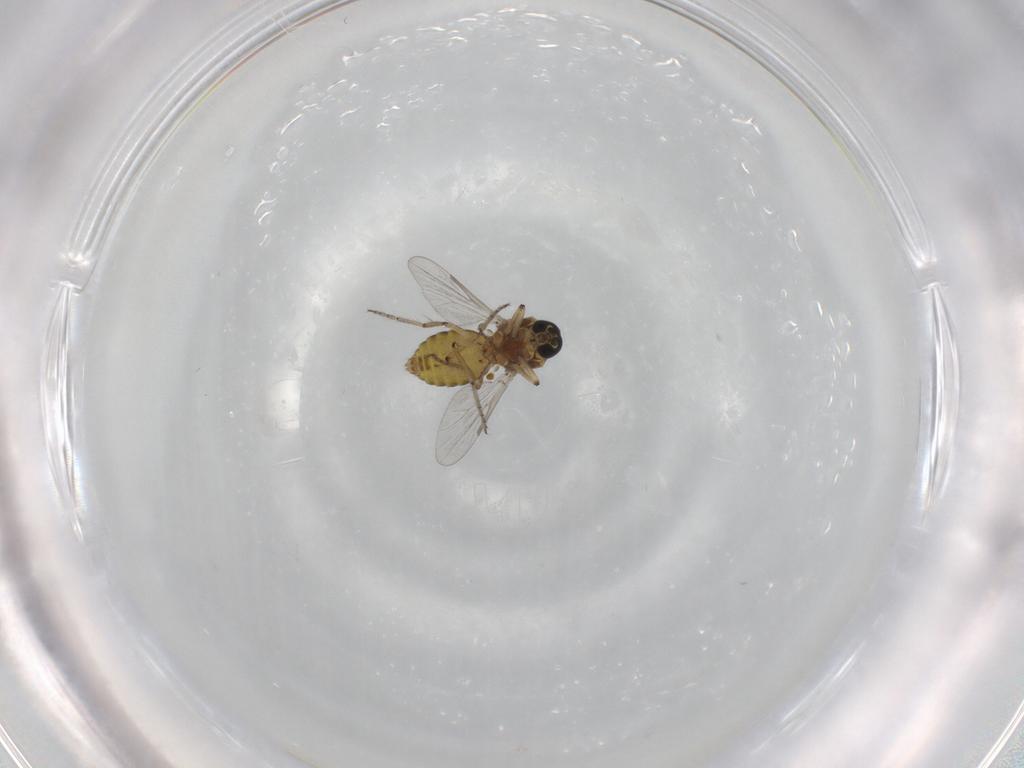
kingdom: Animalia
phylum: Arthropoda
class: Insecta
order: Diptera
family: Ceratopogonidae
